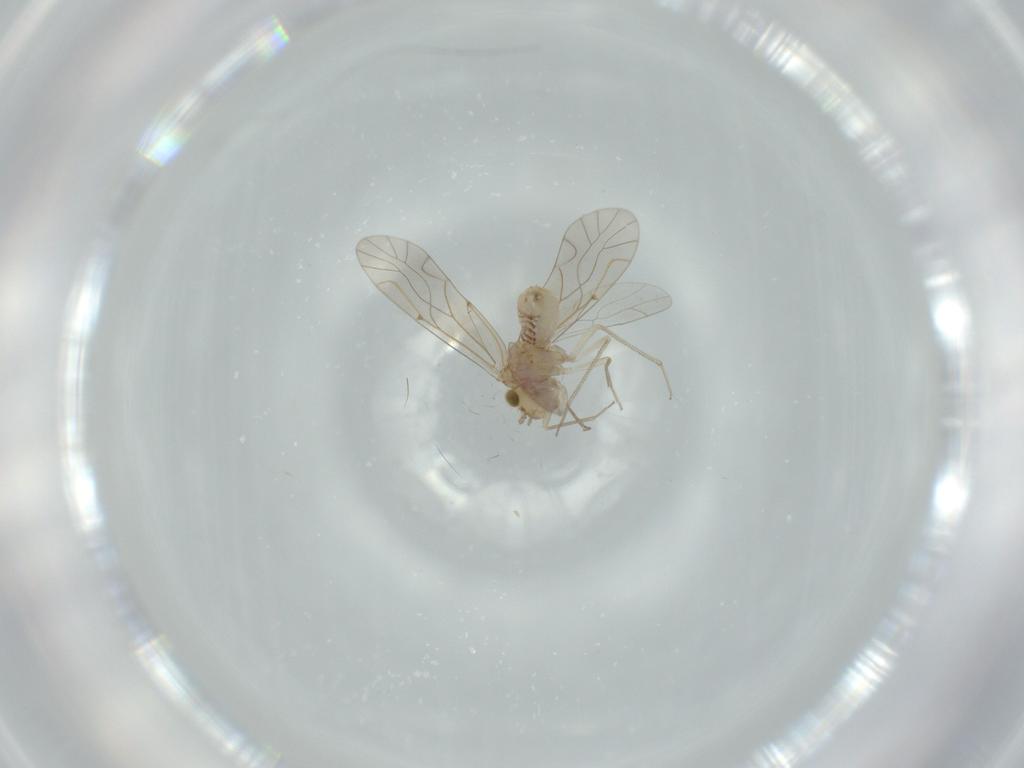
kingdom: Animalia
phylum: Arthropoda
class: Insecta
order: Psocodea
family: Lachesillidae
